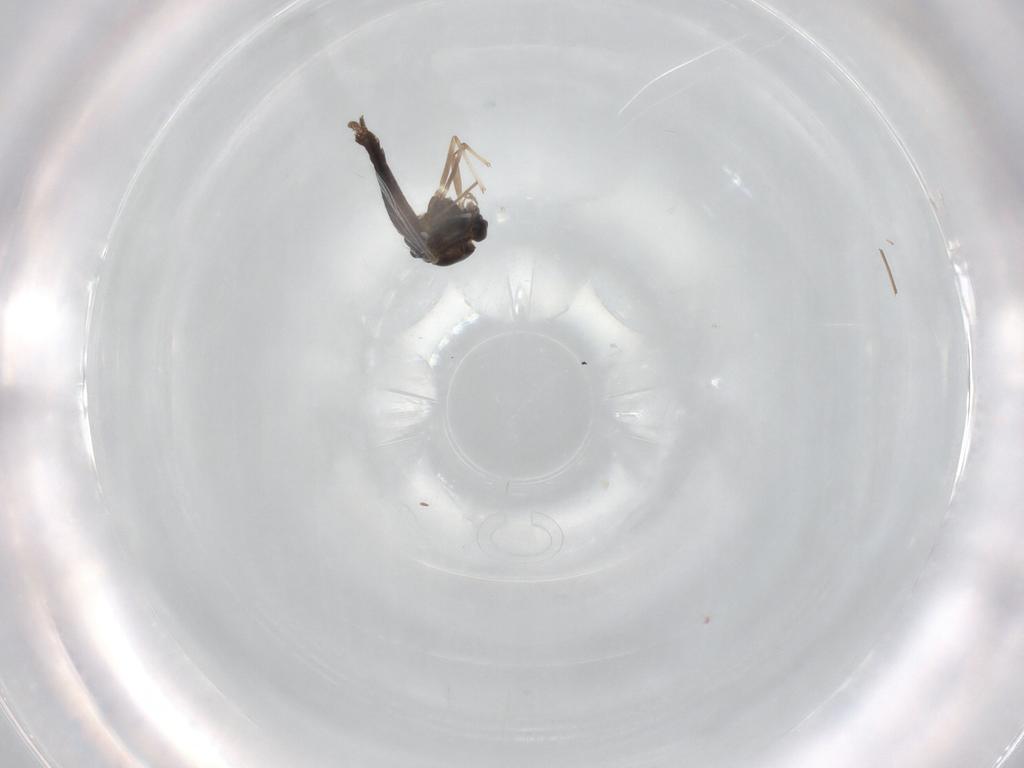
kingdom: Animalia
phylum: Arthropoda
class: Insecta
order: Diptera
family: Chironomidae
